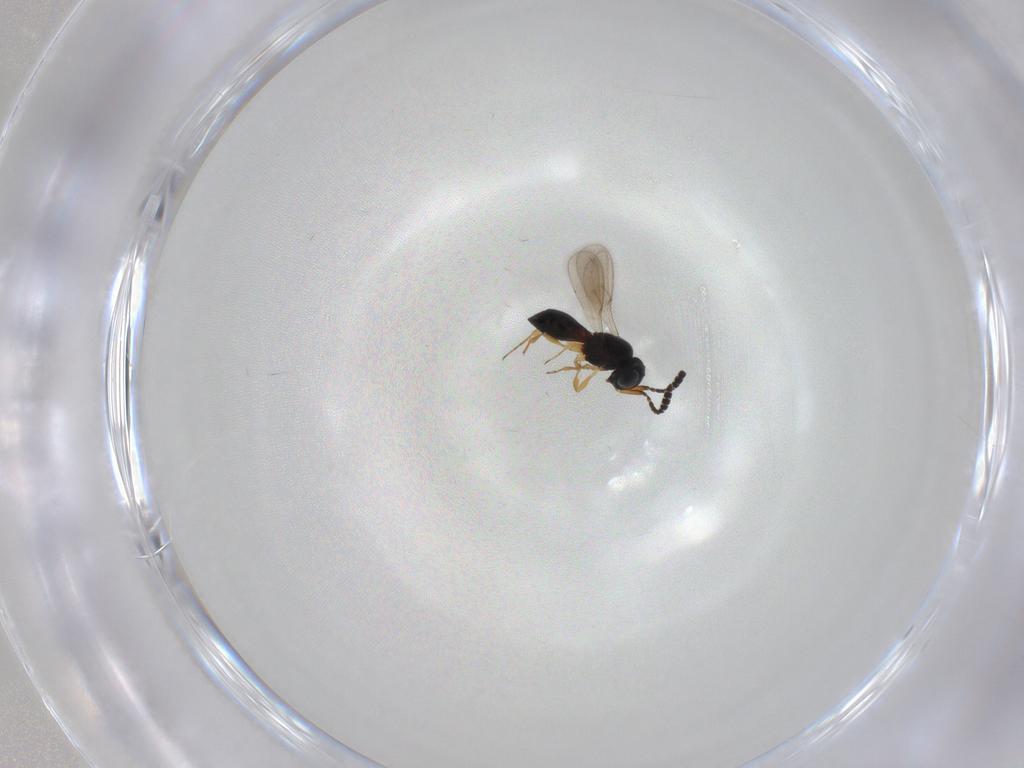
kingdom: Animalia
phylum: Arthropoda
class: Insecta
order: Hymenoptera
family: Scelionidae
